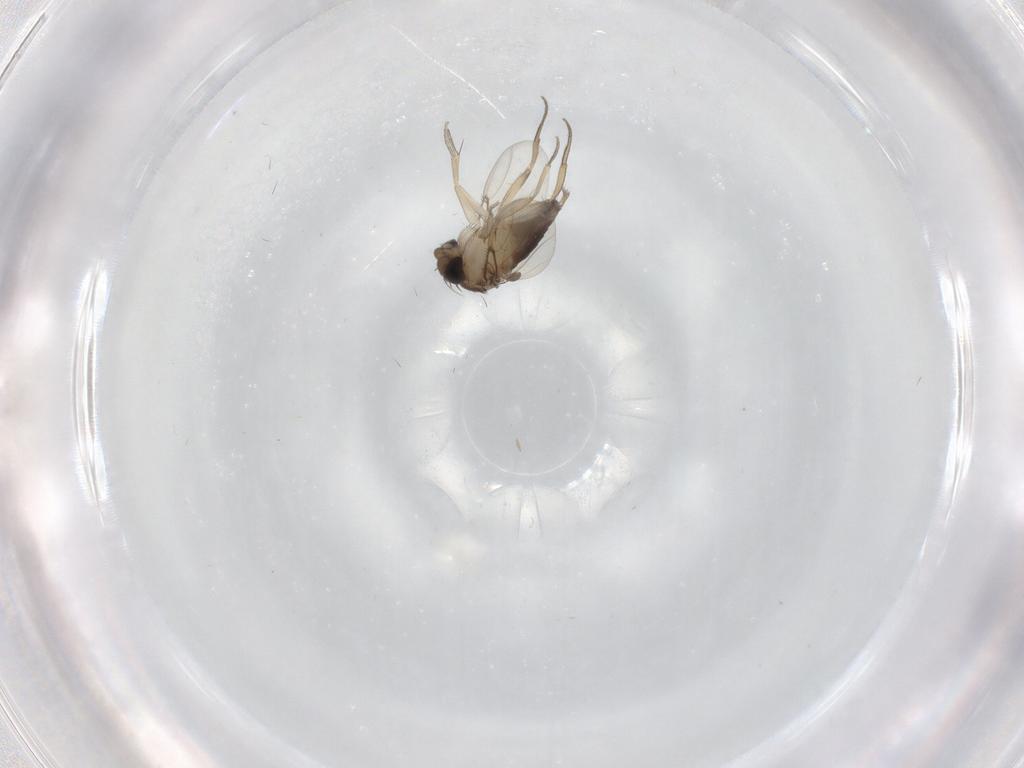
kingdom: Animalia
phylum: Arthropoda
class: Insecta
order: Diptera
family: Phoridae
